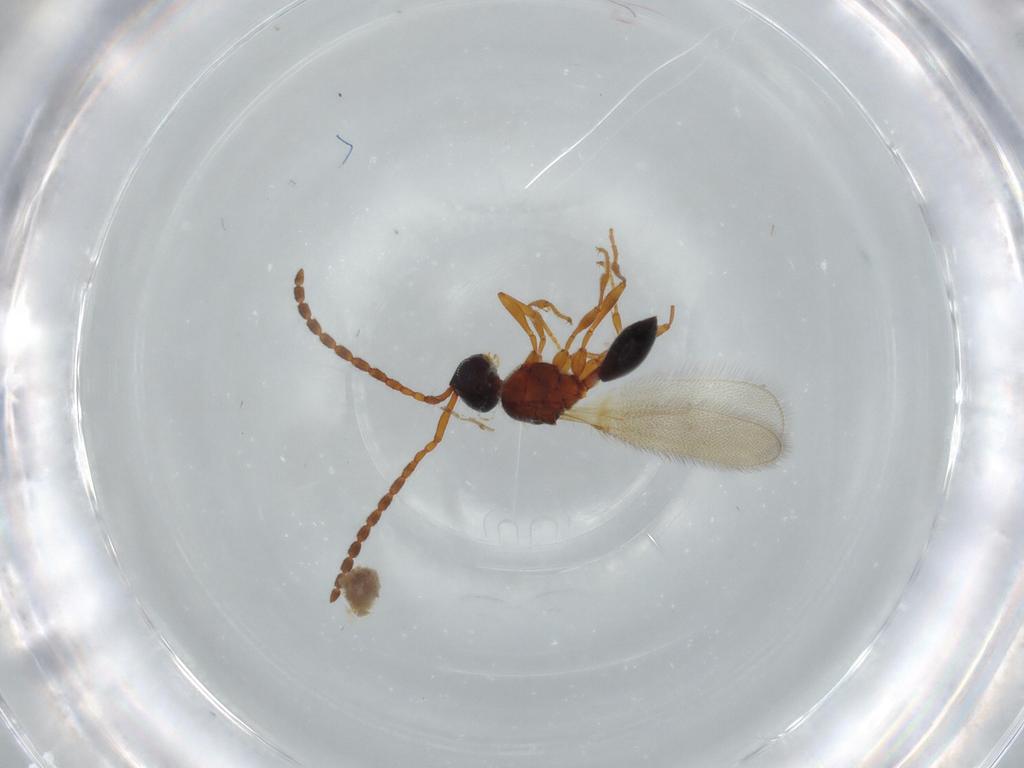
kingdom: Animalia
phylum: Arthropoda
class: Insecta
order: Hymenoptera
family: Diapriidae
